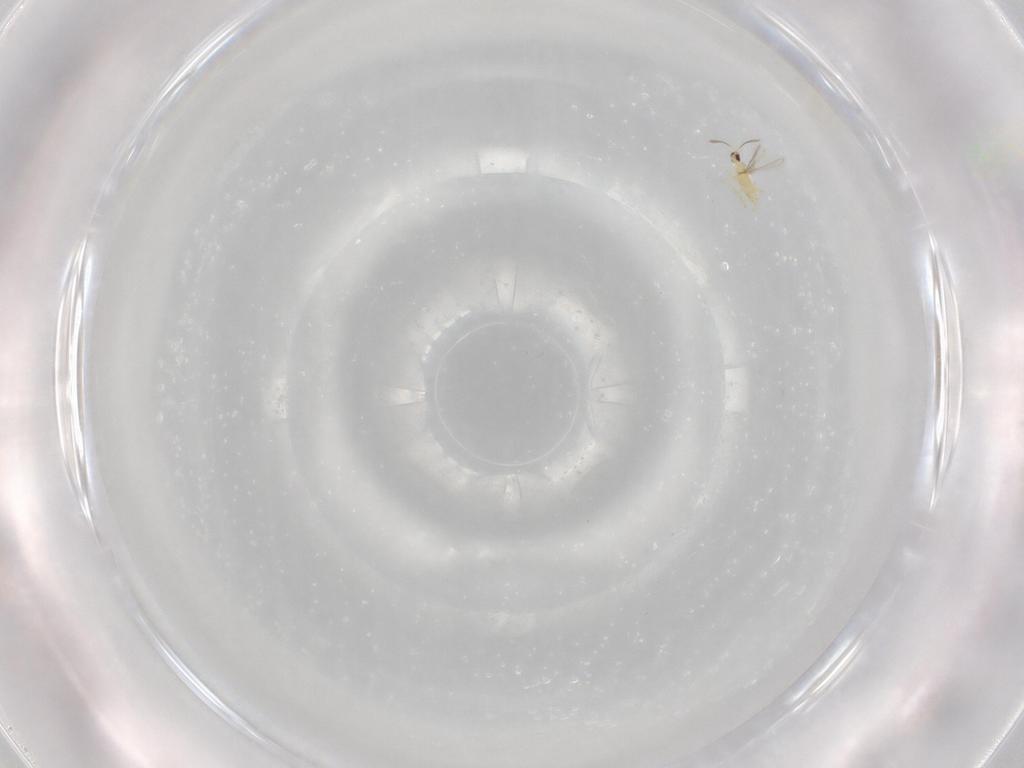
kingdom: Animalia
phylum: Arthropoda
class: Insecta
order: Hymenoptera
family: Mymaridae
